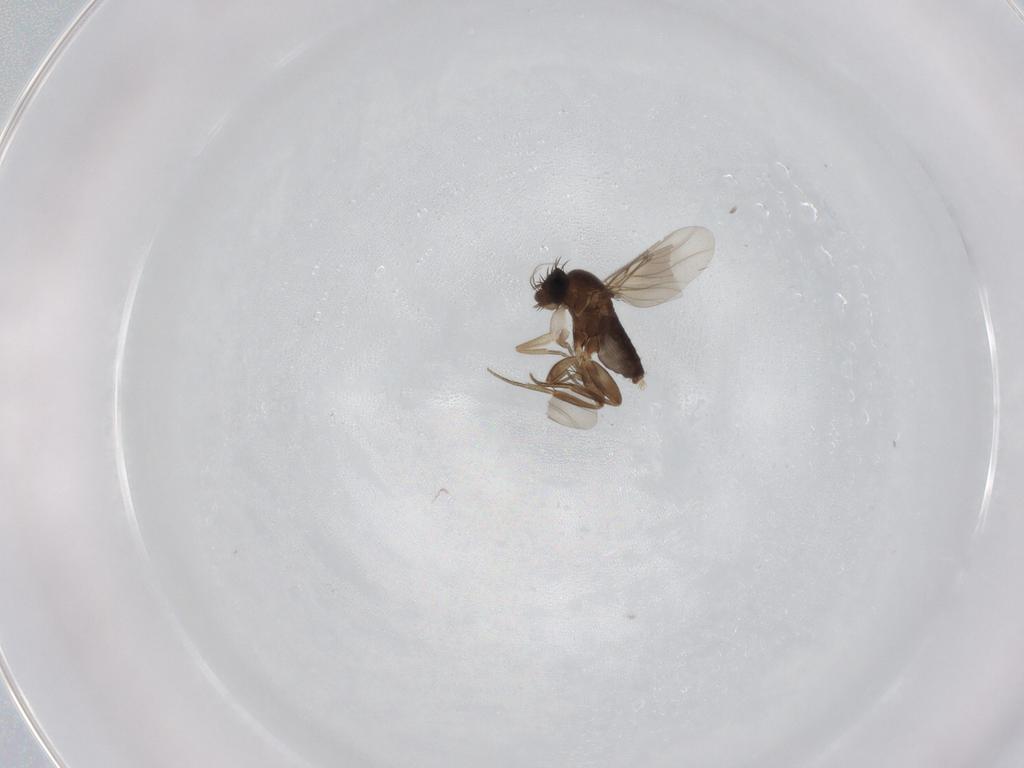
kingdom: Animalia
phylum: Arthropoda
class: Insecta
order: Diptera
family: Phoridae
